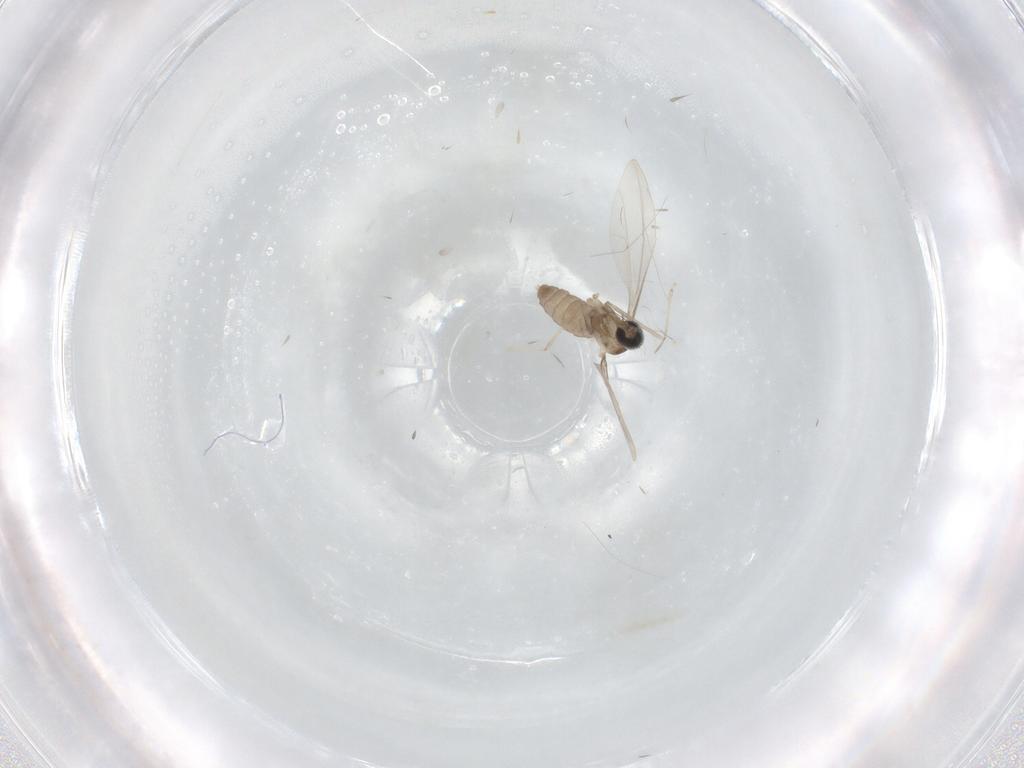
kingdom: Animalia
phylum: Arthropoda
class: Insecta
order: Diptera
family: Cecidomyiidae
